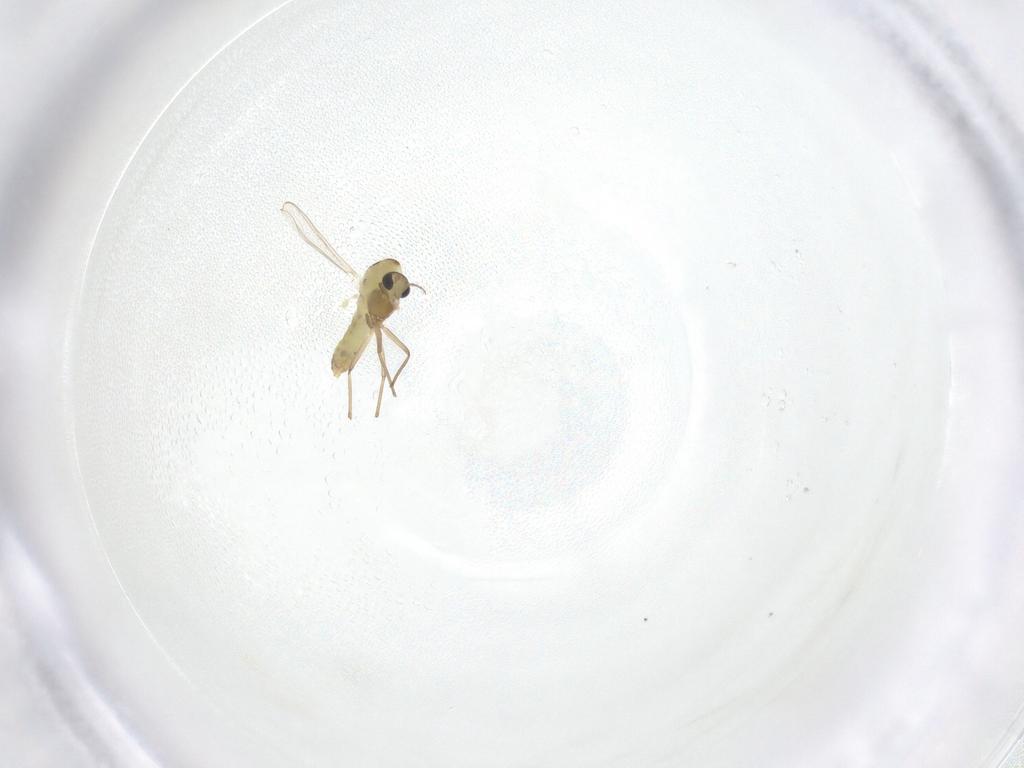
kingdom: Animalia
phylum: Arthropoda
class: Insecta
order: Diptera
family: Chironomidae
